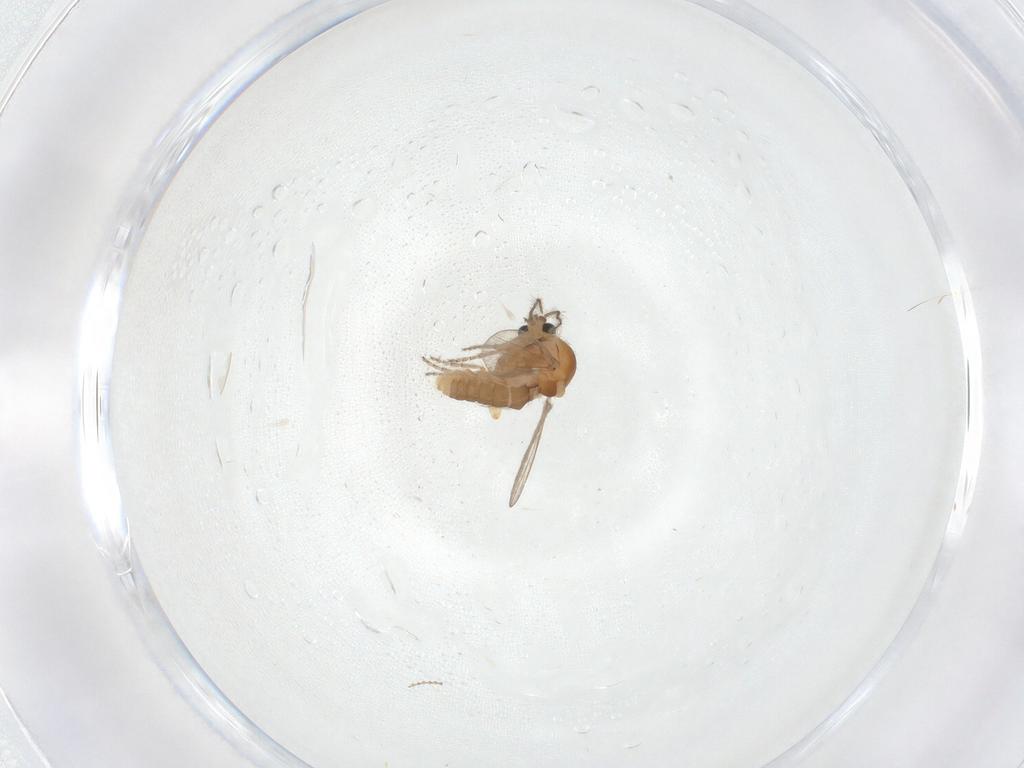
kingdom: Animalia
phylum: Arthropoda
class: Insecta
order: Diptera
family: Ceratopogonidae
